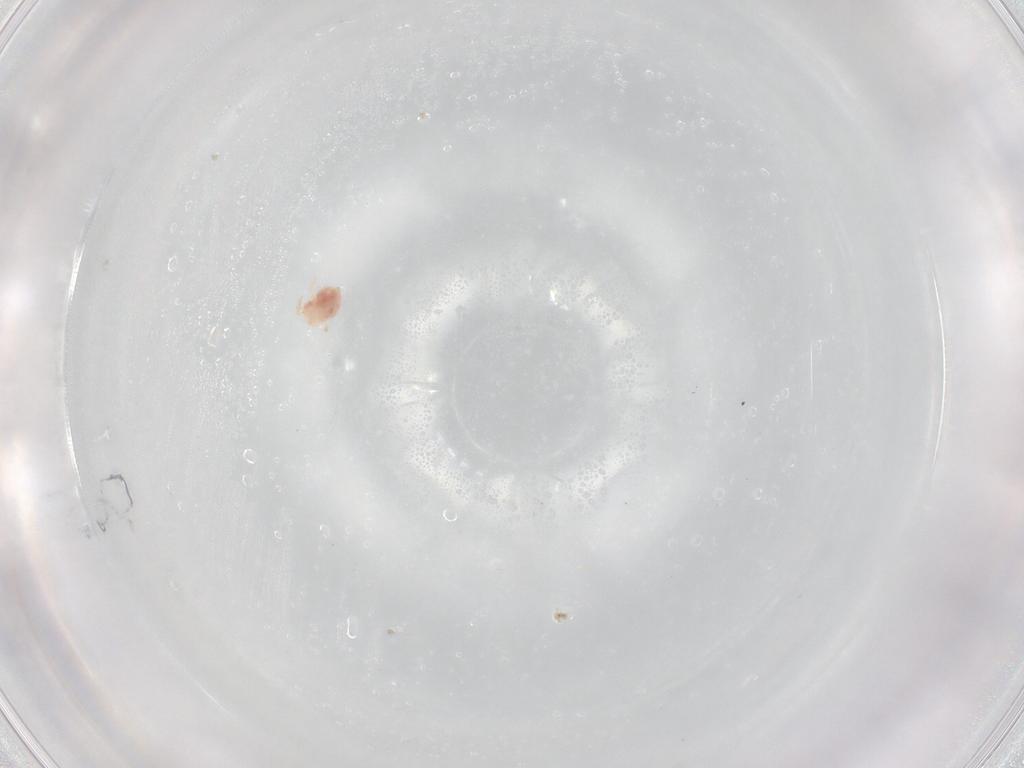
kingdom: Animalia
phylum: Arthropoda
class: Arachnida
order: Trombidiformes
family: Microtrombidiidae
